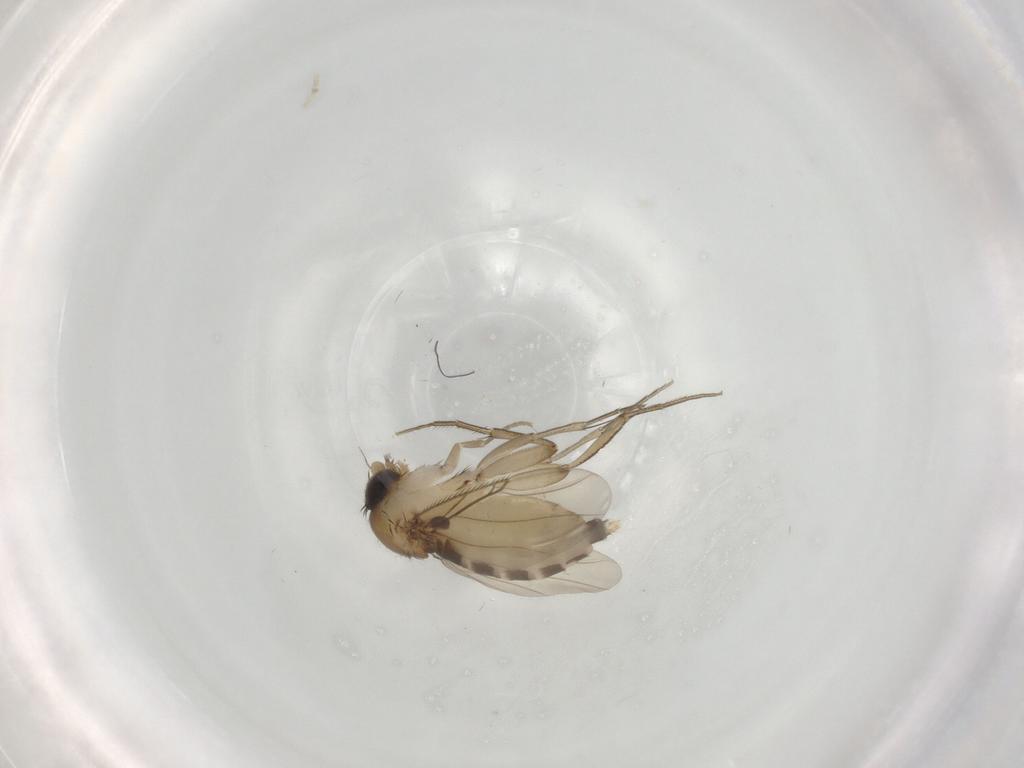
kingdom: Animalia
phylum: Arthropoda
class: Insecta
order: Diptera
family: Phoridae
